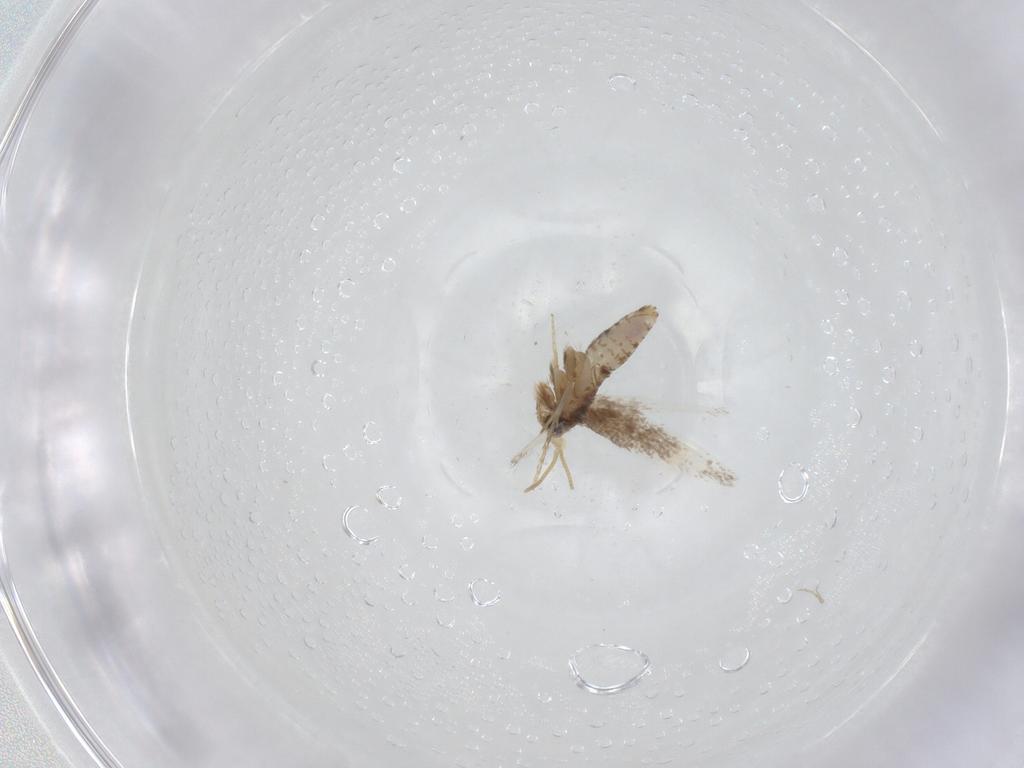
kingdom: Animalia
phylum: Arthropoda
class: Insecta
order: Lepidoptera
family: Nepticulidae
